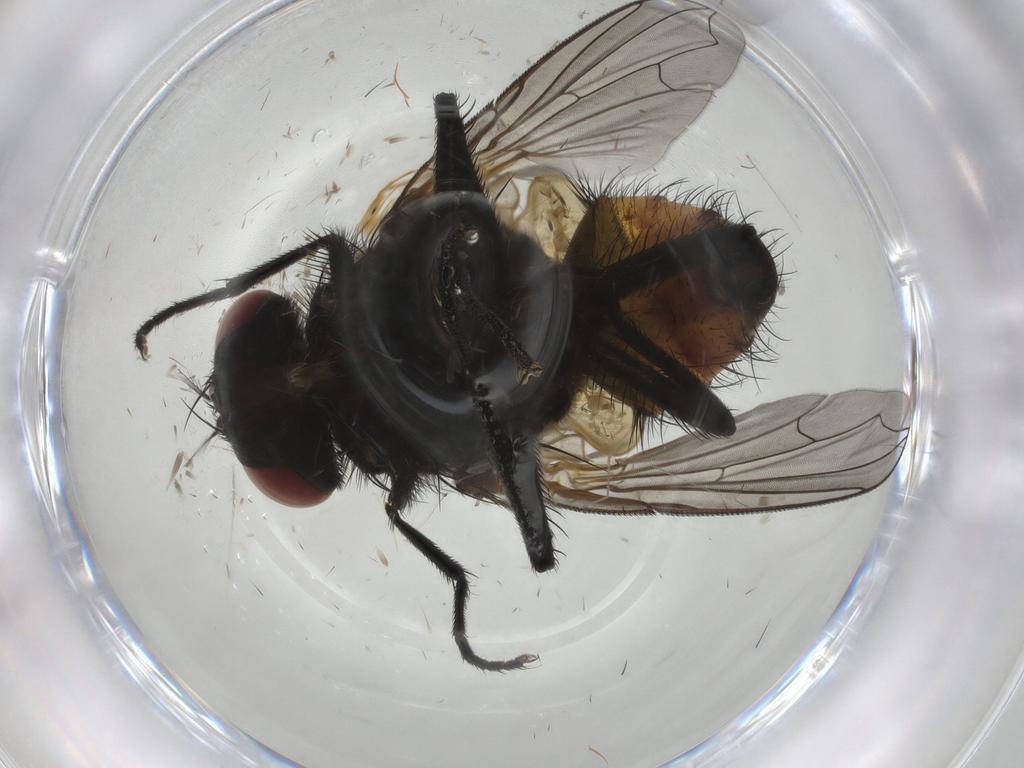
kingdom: Animalia
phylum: Arthropoda
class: Insecta
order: Diptera
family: Muscidae
